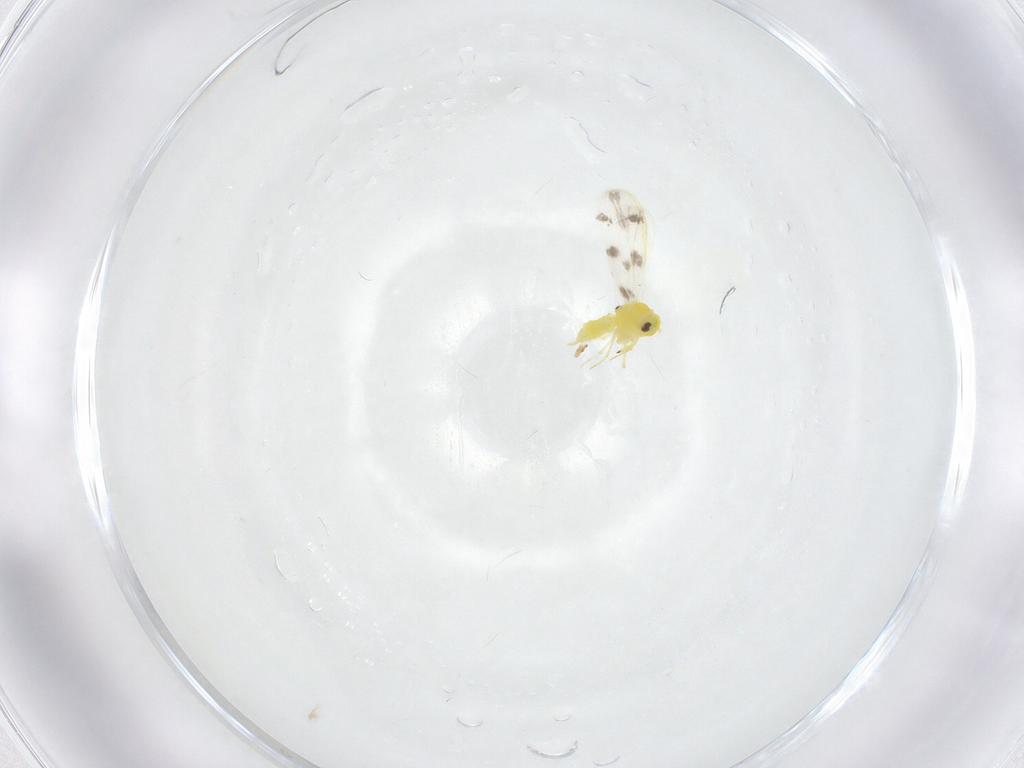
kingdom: Animalia
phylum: Arthropoda
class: Insecta
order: Hemiptera
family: Aleyrodidae
